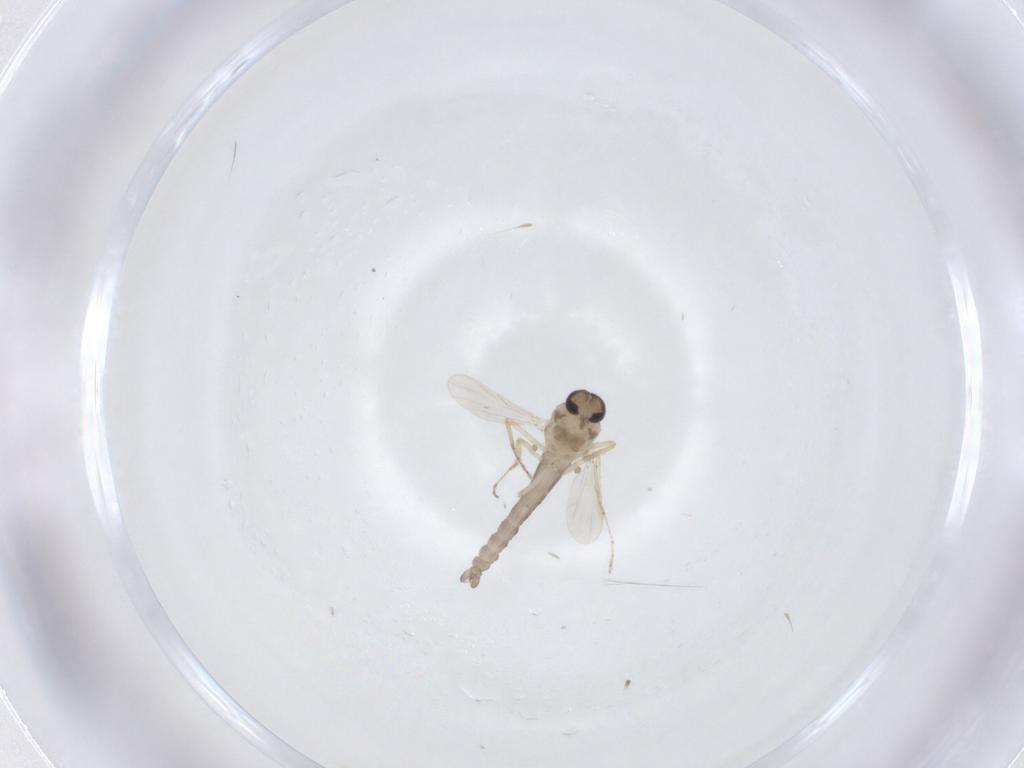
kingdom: Animalia
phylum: Arthropoda
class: Insecta
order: Diptera
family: Ceratopogonidae
